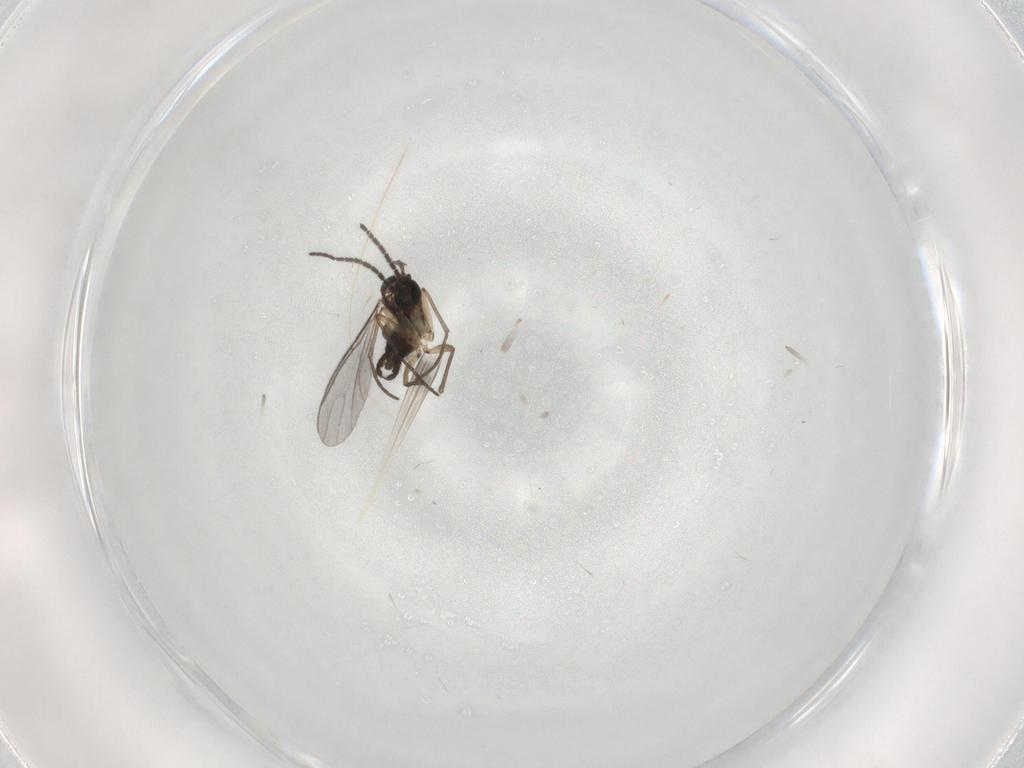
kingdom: Animalia
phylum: Arthropoda
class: Insecta
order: Diptera
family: Sciaridae
